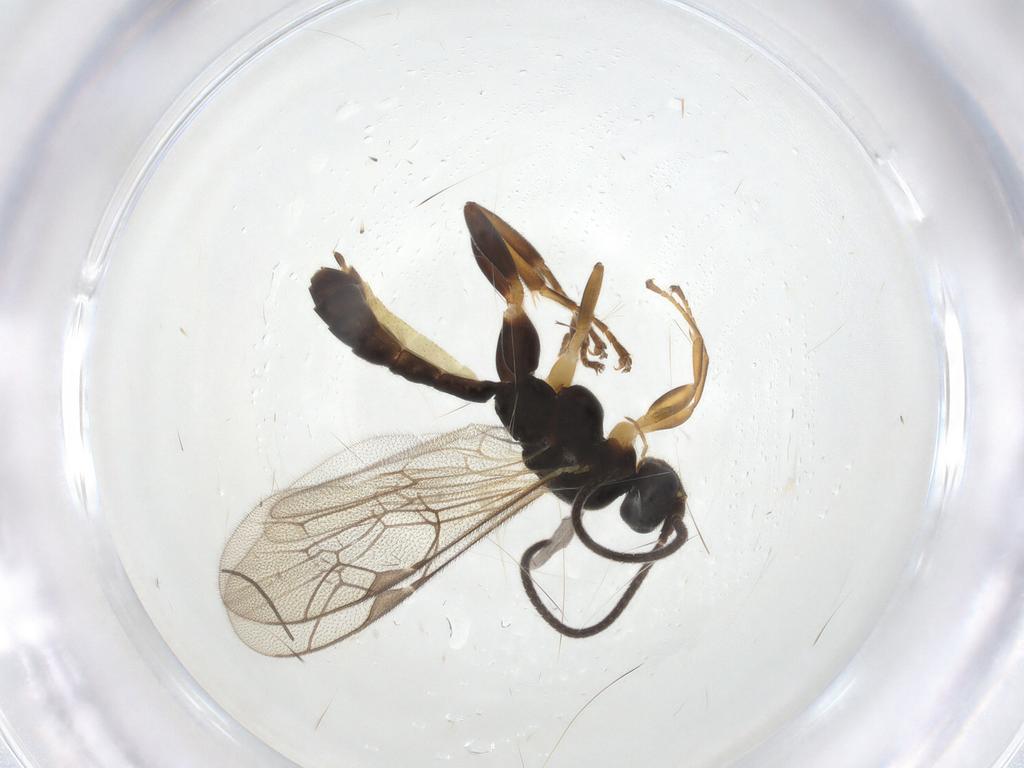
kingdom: Animalia
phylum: Arthropoda
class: Insecta
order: Hymenoptera
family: Ichneumonidae
